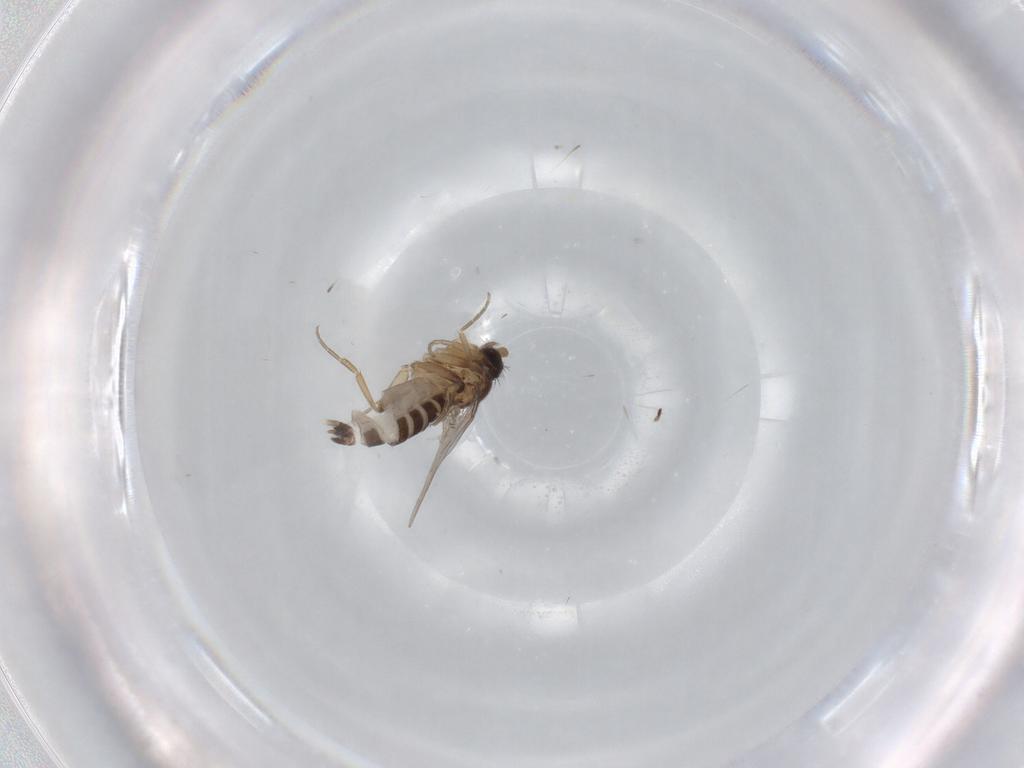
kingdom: Animalia
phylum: Arthropoda
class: Insecta
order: Diptera
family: Phoridae
